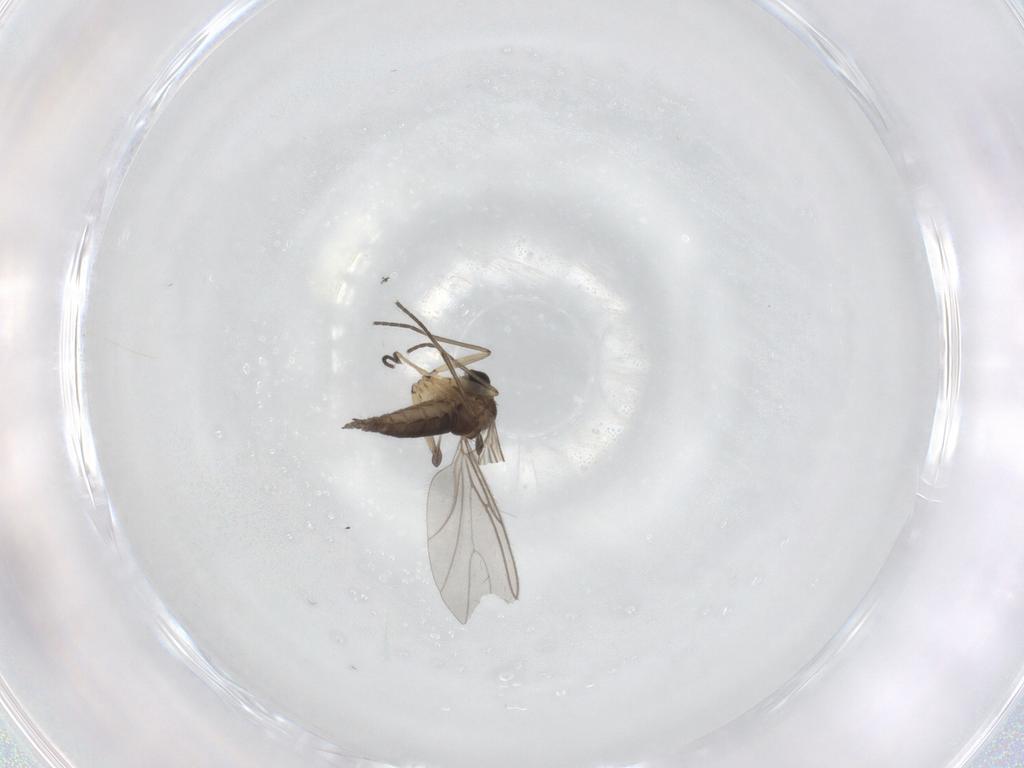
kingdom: Animalia
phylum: Arthropoda
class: Insecta
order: Diptera
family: Sciaridae
